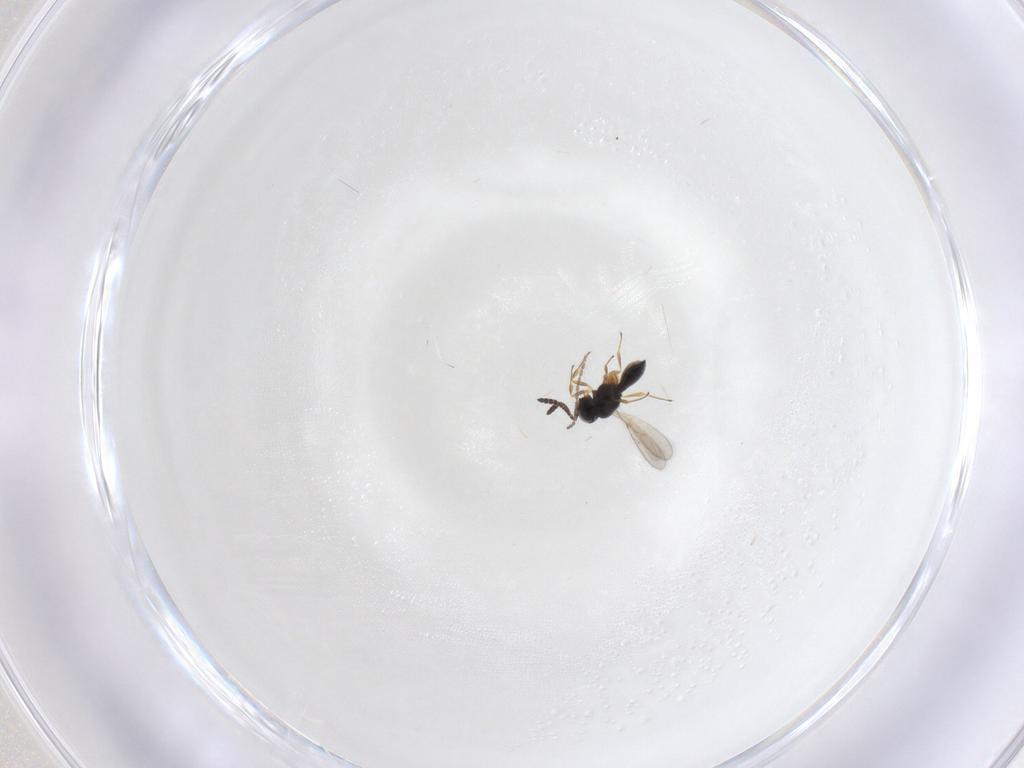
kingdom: Animalia
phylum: Arthropoda
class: Insecta
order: Hymenoptera
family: Scelionidae
